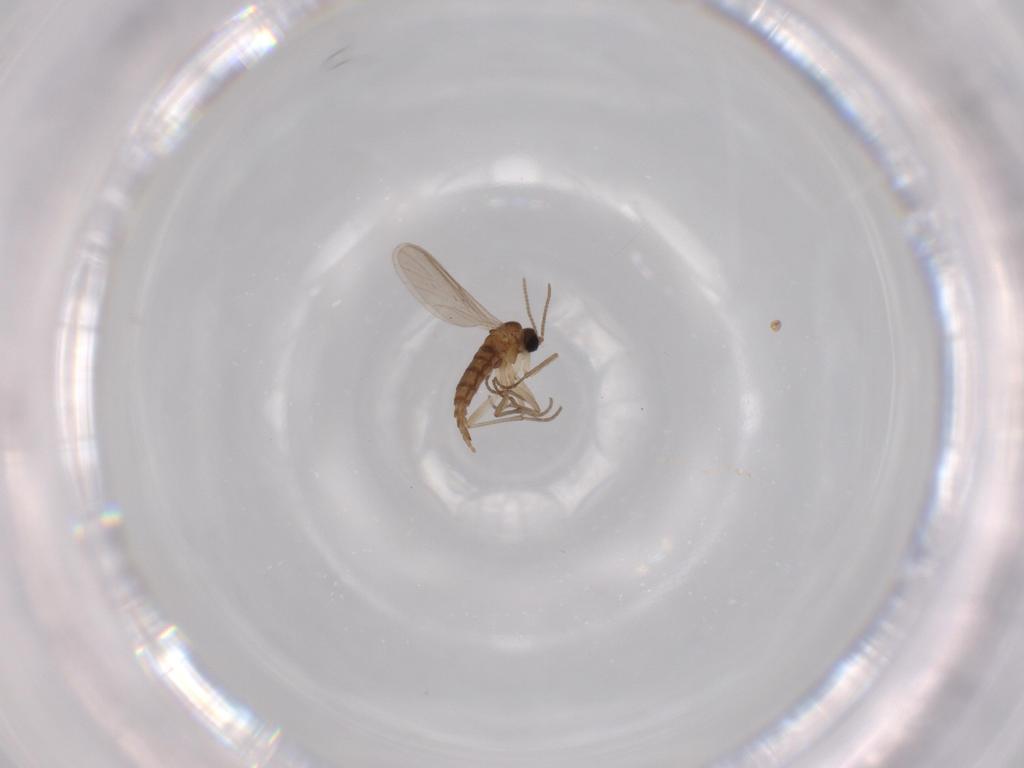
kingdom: Animalia
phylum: Arthropoda
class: Insecta
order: Diptera
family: Sciaridae
